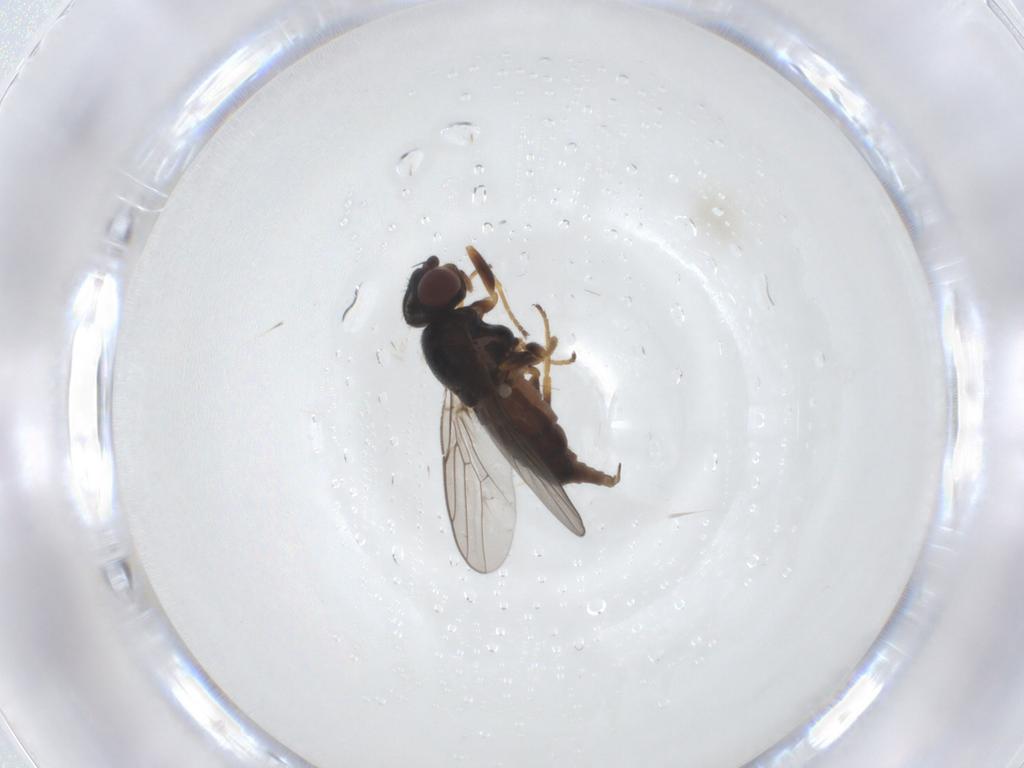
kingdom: Animalia
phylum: Arthropoda
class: Insecta
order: Diptera
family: Chloropidae
